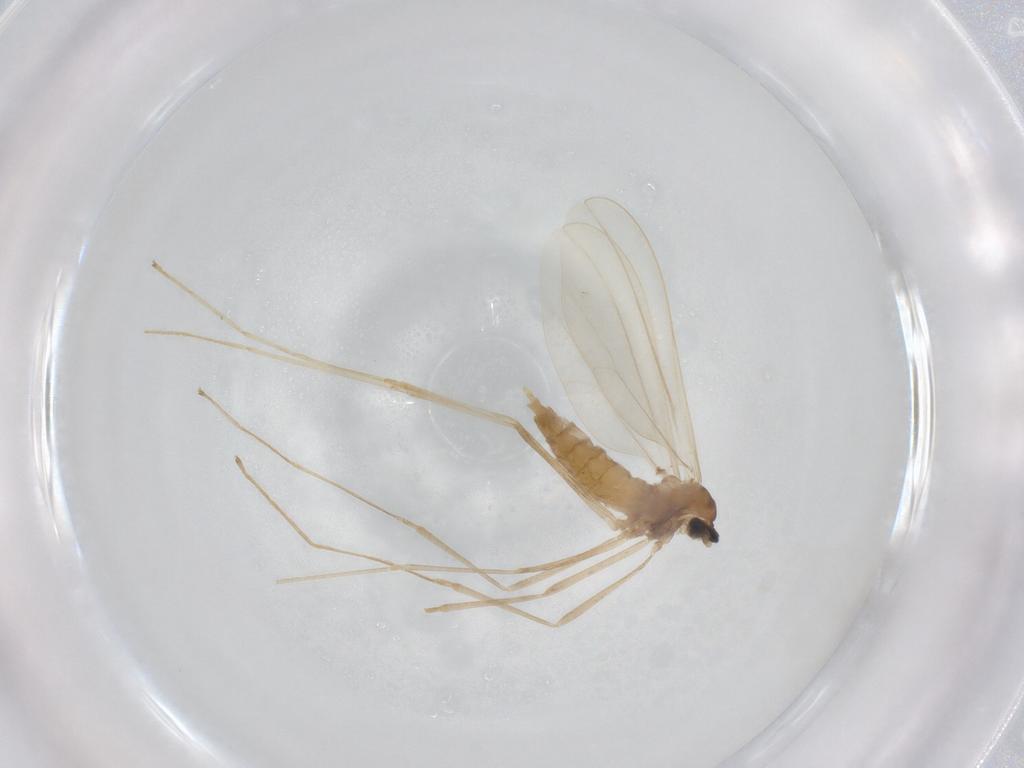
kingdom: Animalia
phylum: Arthropoda
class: Insecta
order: Diptera
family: Cecidomyiidae
